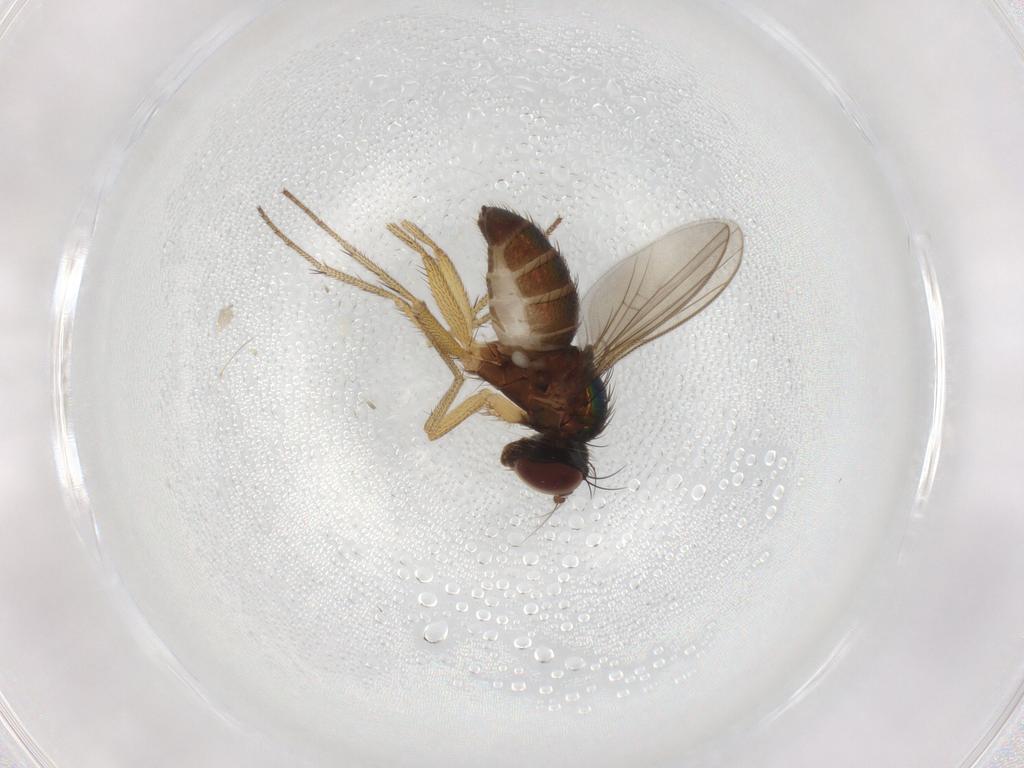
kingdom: Animalia
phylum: Arthropoda
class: Insecta
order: Diptera
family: Dolichopodidae
